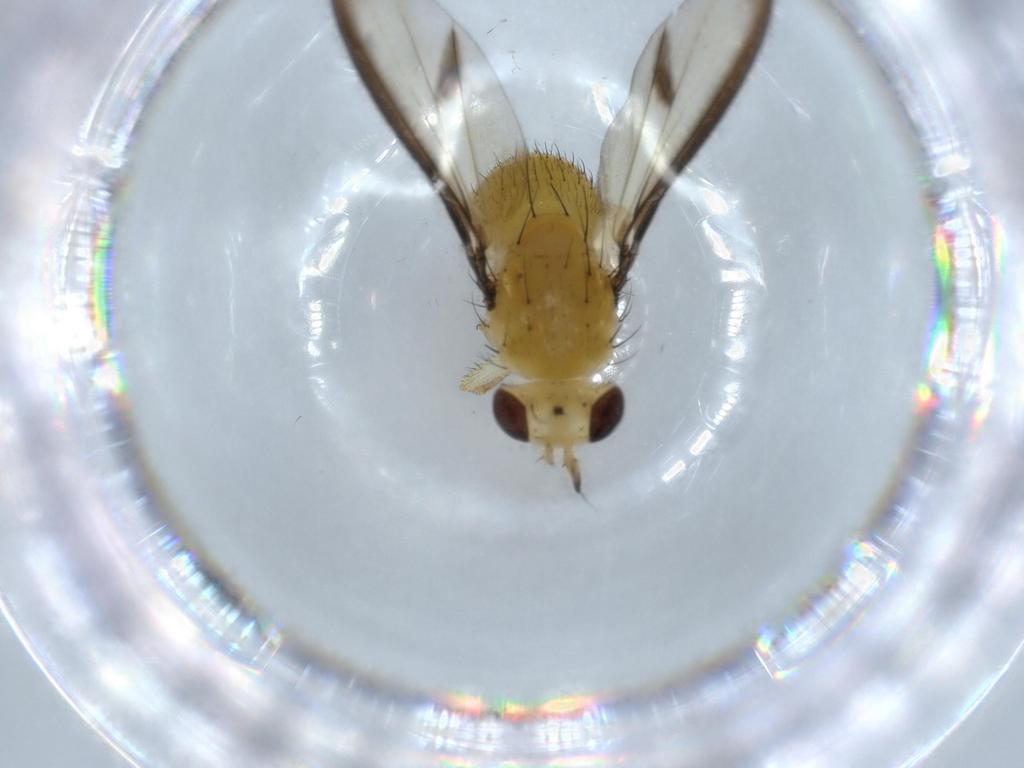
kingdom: Animalia
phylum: Arthropoda
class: Insecta
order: Diptera
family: Lauxaniidae
